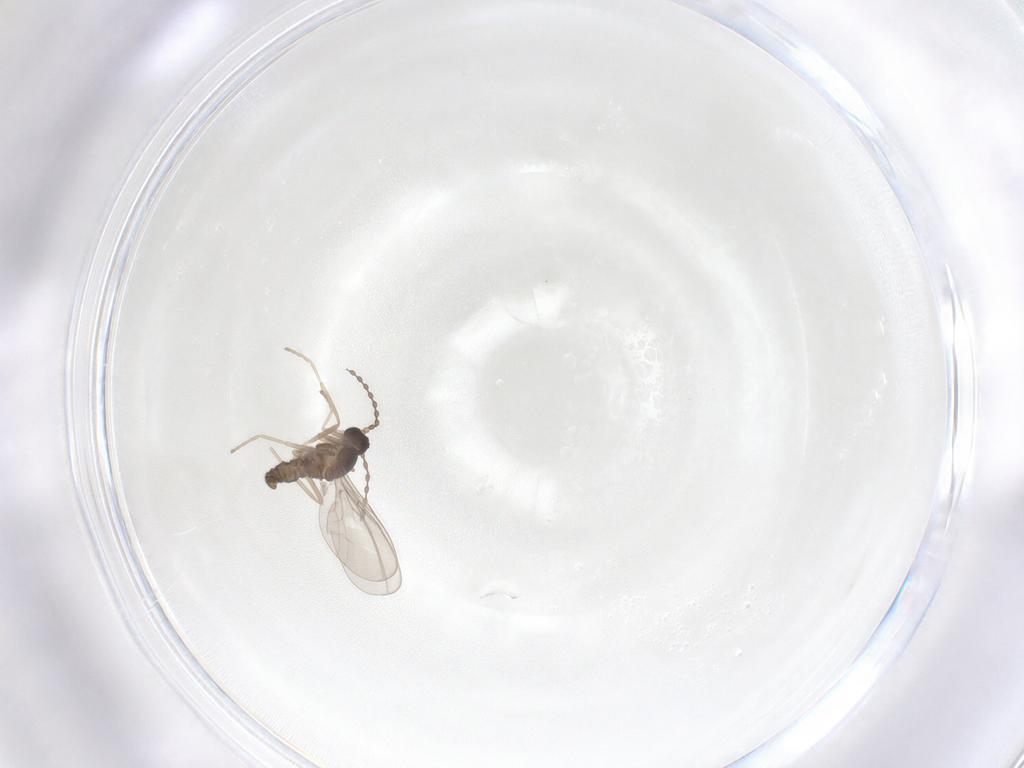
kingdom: Animalia
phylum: Arthropoda
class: Insecta
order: Diptera
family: Cecidomyiidae
